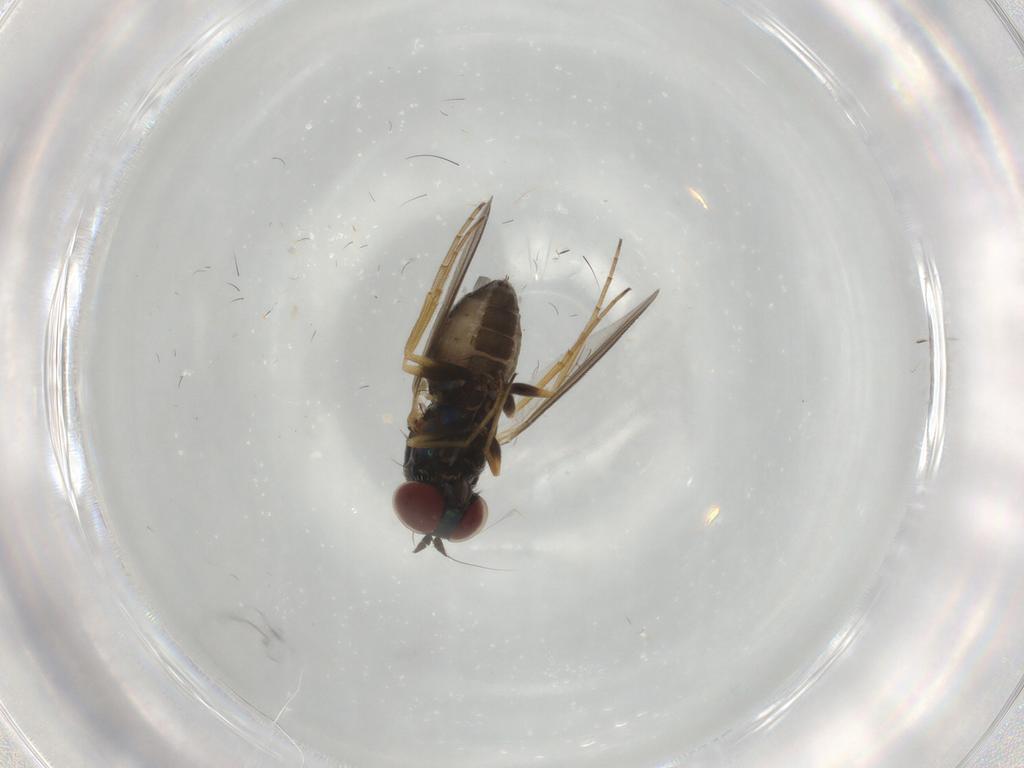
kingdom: Animalia
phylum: Arthropoda
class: Insecta
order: Diptera
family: Dolichopodidae
